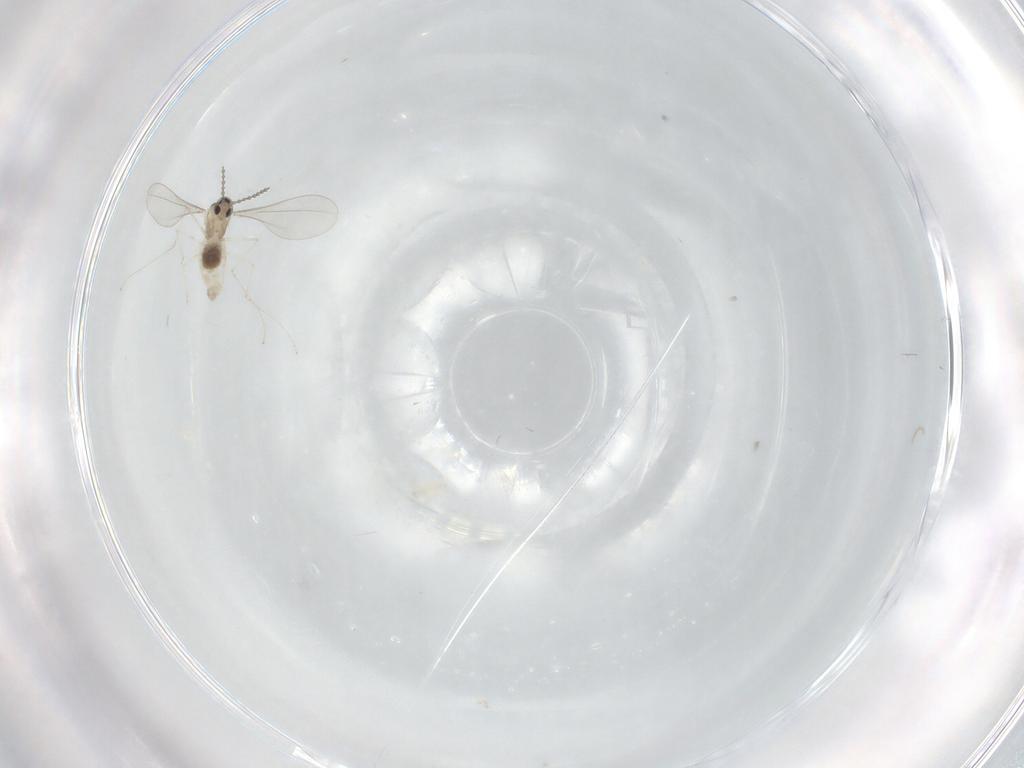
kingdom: Animalia
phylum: Arthropoda
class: Insecta
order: Diptera
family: Cecidomyiidae
